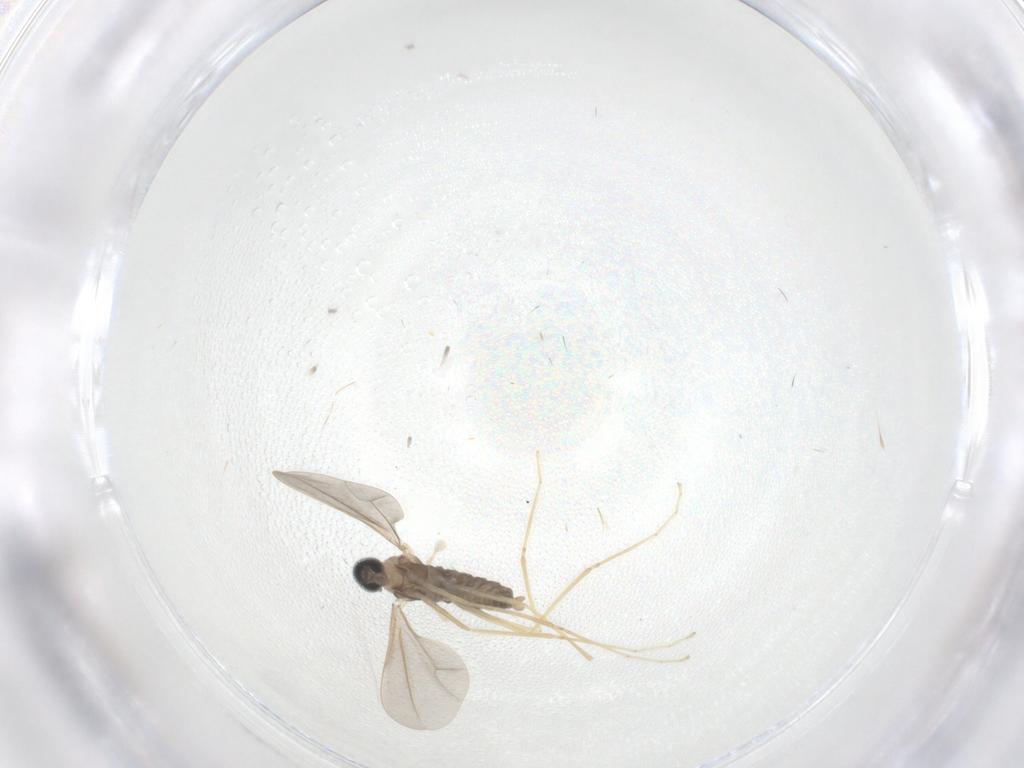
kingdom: Animalia
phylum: Arthropoda
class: Insecta
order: Diptera
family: Cecidomyiidae
